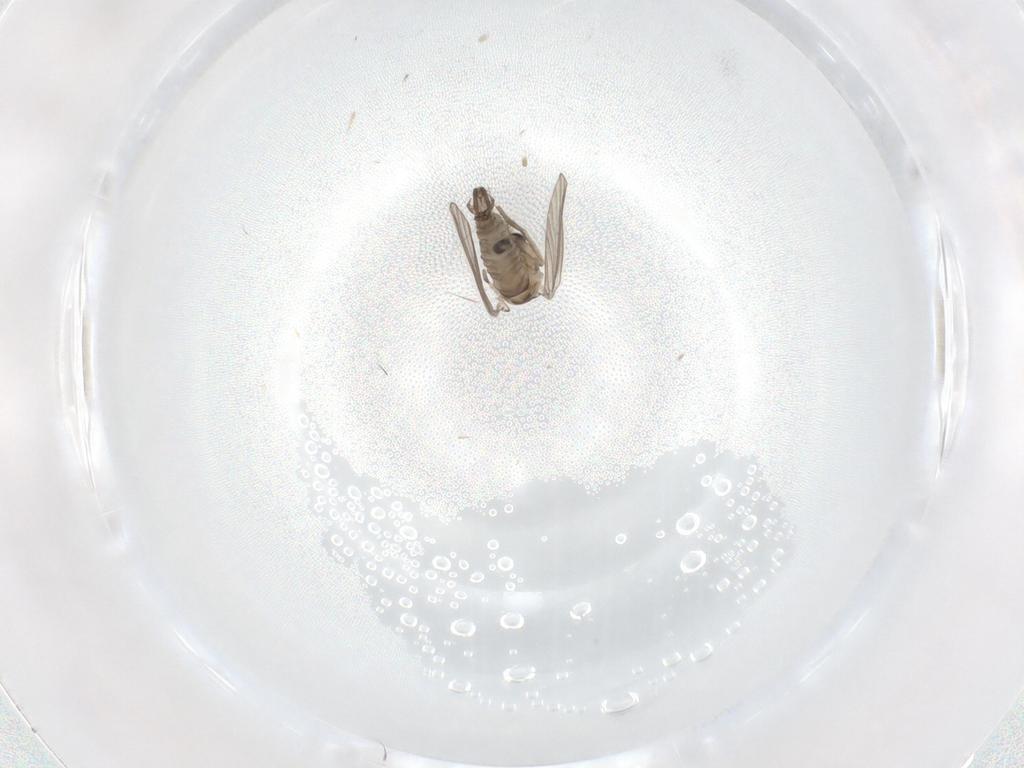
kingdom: Animalia
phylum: Arthropoda
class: Insecta
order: Diptera
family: Psychodidae
